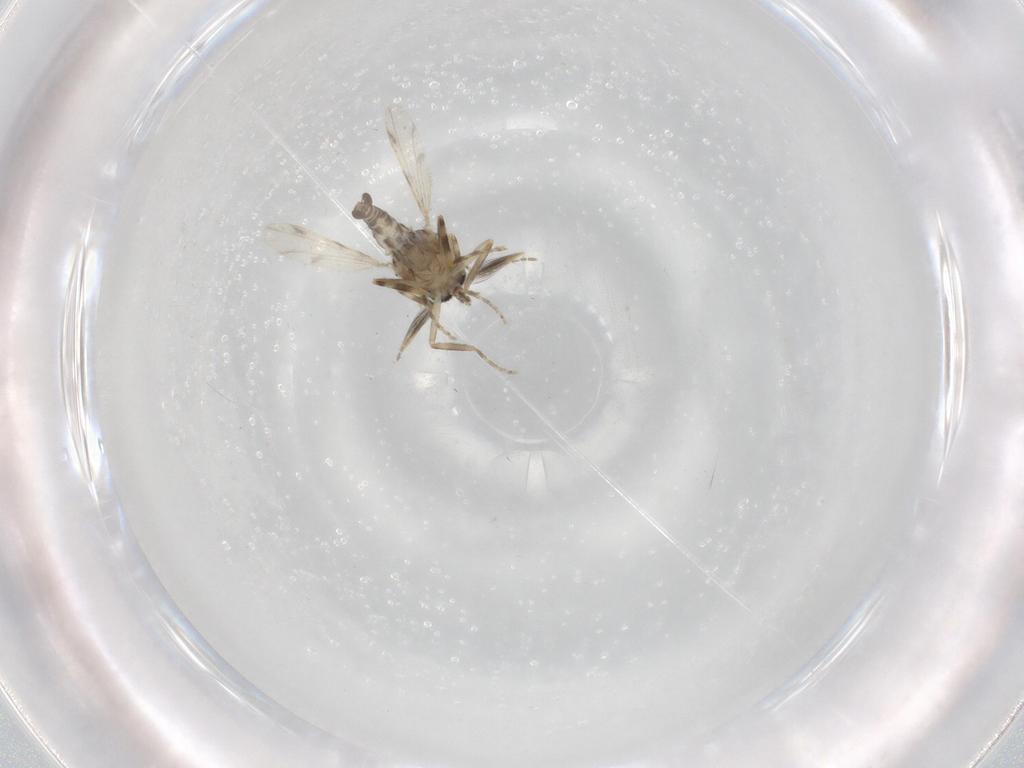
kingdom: Animalia
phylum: Arthropoda
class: Insecta
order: Diptera
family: Ceratopogonidae
